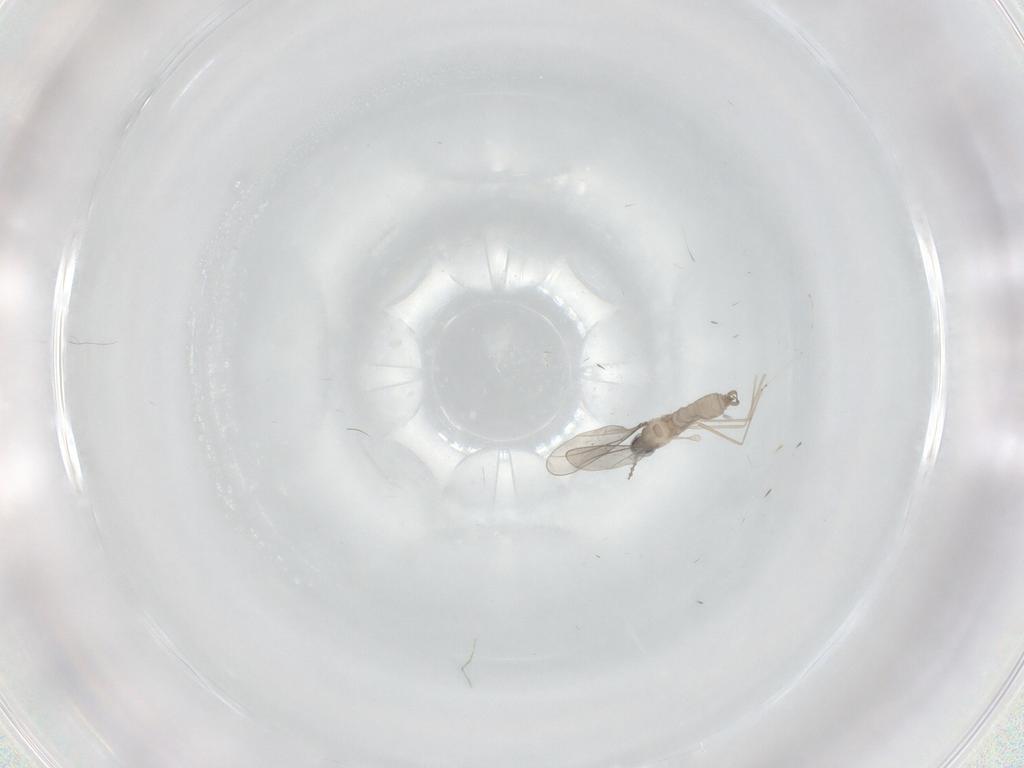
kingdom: Animalia
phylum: Arthropoda
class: Insecta
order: Diptera
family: Cecidomyiidae
